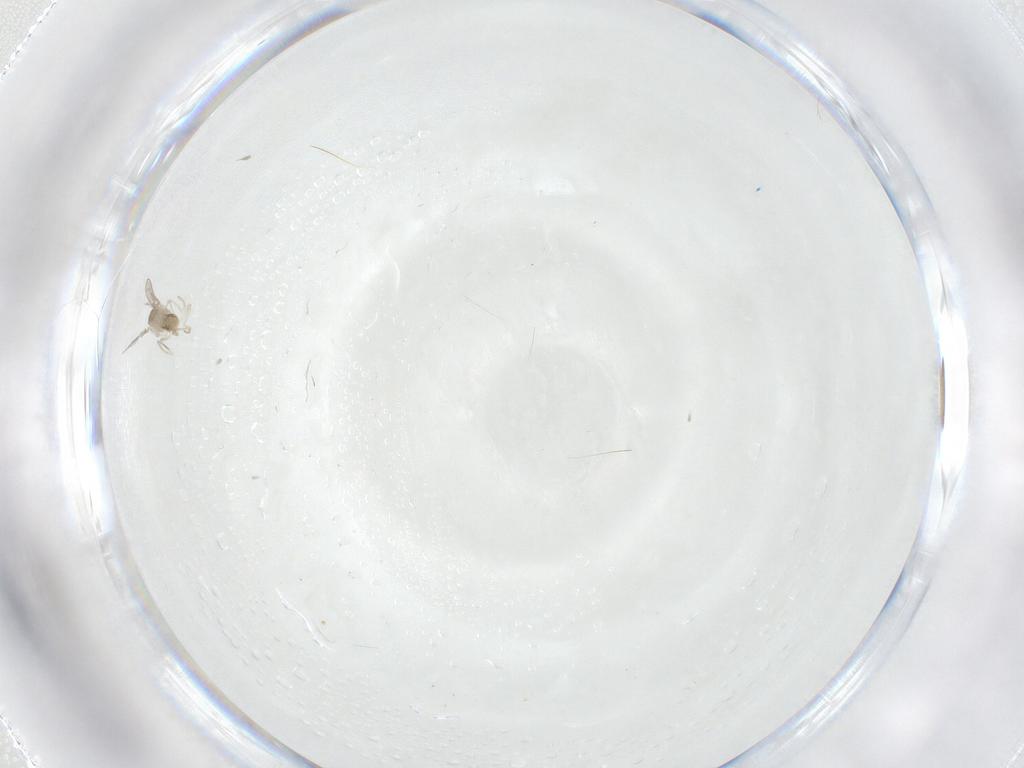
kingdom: Animalia
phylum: Arthropoda
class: Insecta
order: Diptera
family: Cecidomyiidae
